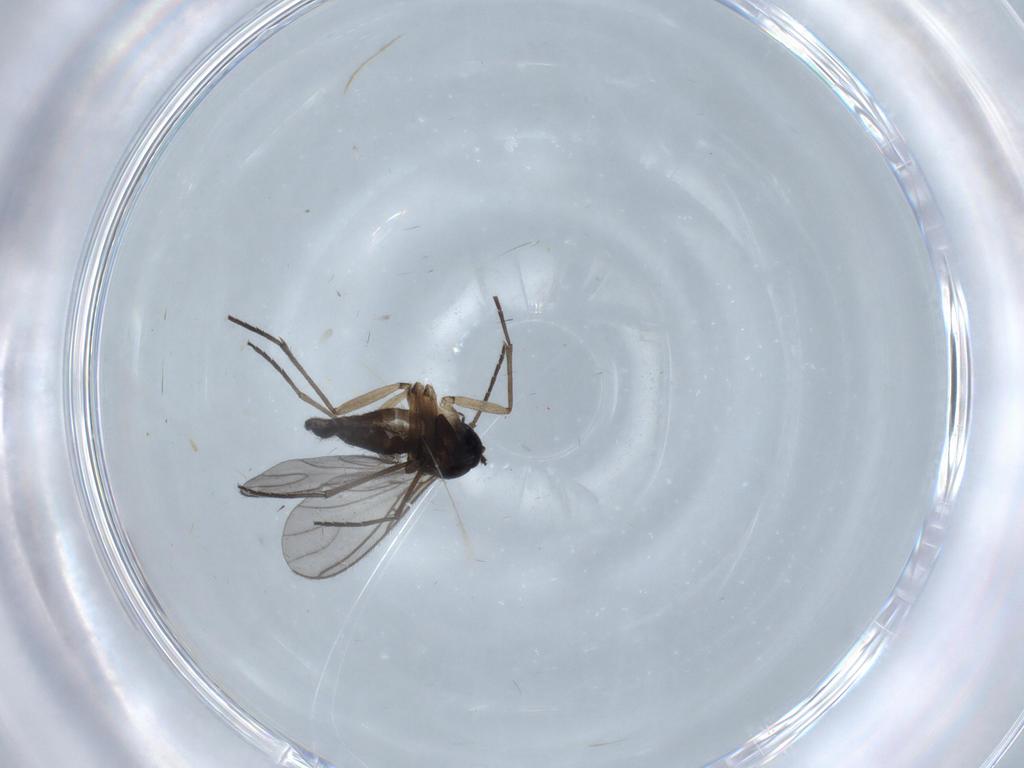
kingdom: Animalia
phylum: Arthropoda
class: Insecta
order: Diptera
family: Sciaridae
